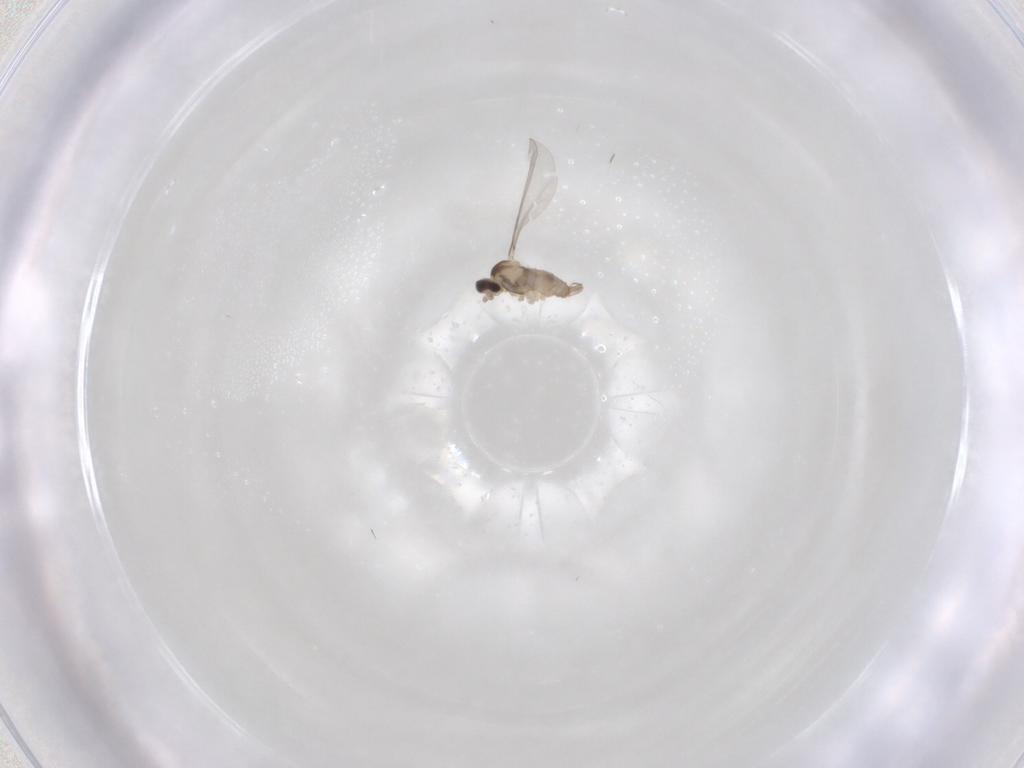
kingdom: Animalia
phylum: Arthropoda
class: Insecta
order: Diptera
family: Cecidomyiidae
